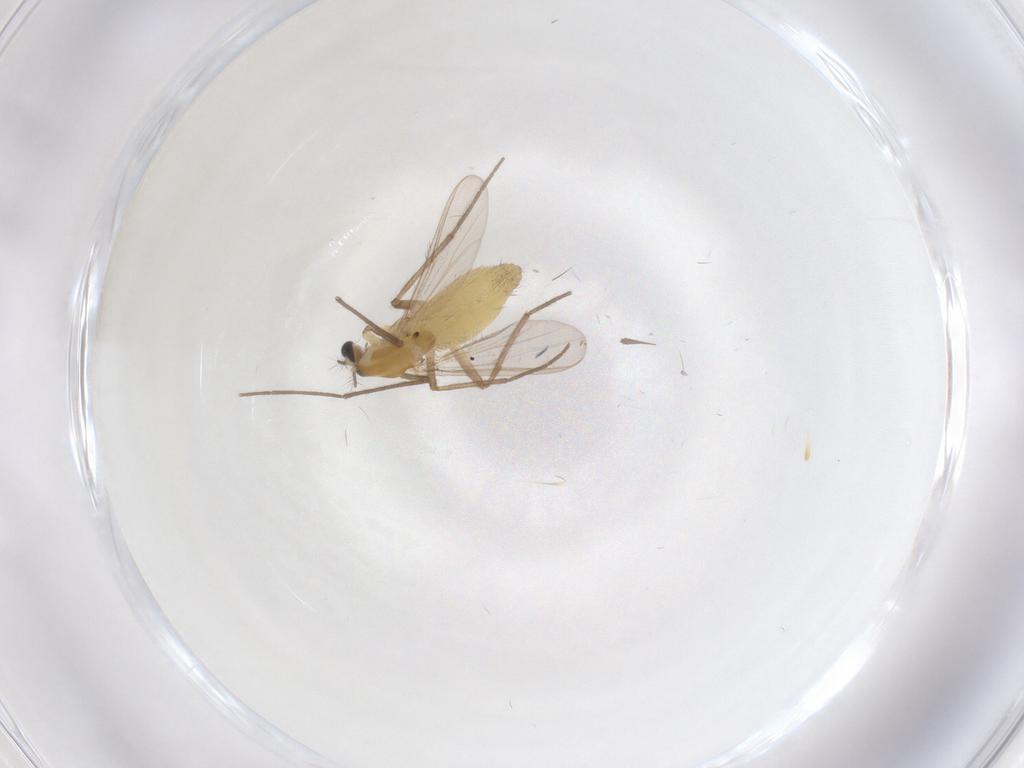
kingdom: Animalia
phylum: Arthropoda
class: Insecta
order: Diptera
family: Chironomidae
